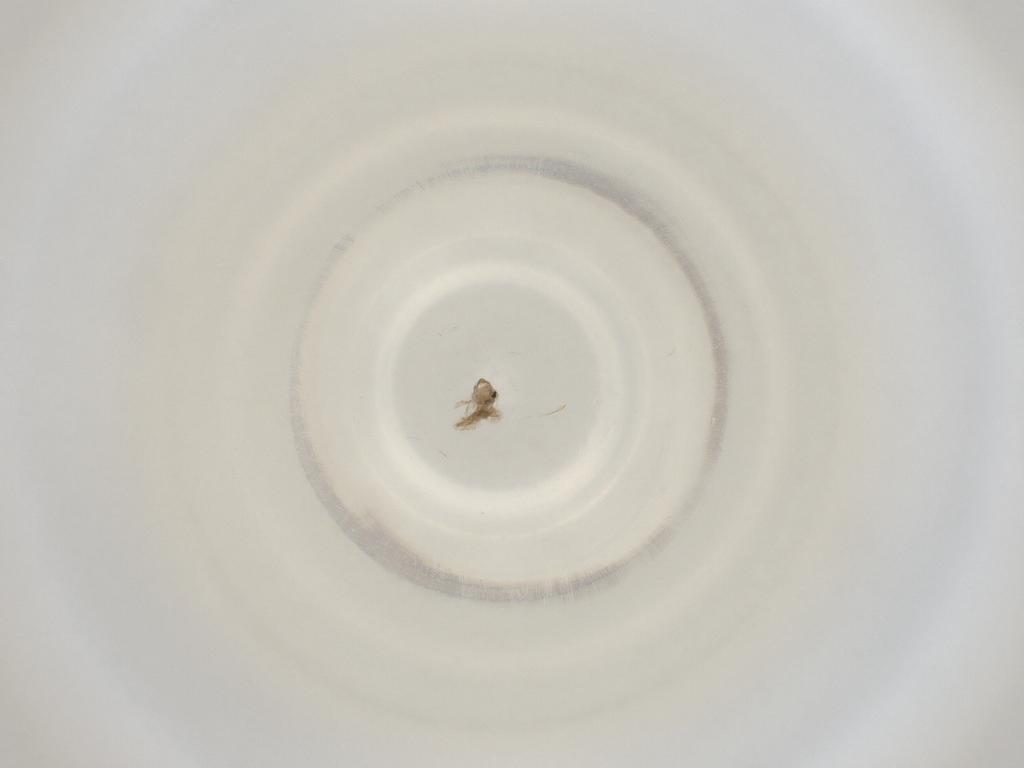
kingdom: Animalia
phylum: Arthropoda
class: Insecta
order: Diptera
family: Cecidomyiidae
